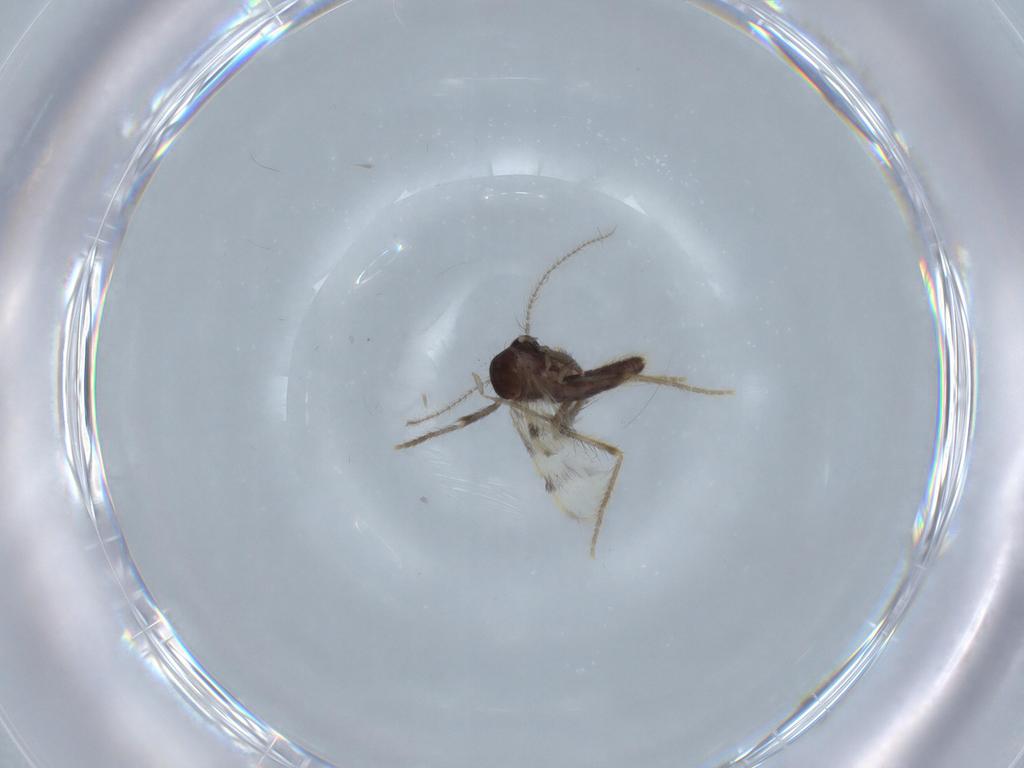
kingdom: Animalia
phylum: Arthropoda
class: Insecta
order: Diptera
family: Corethrellidae
